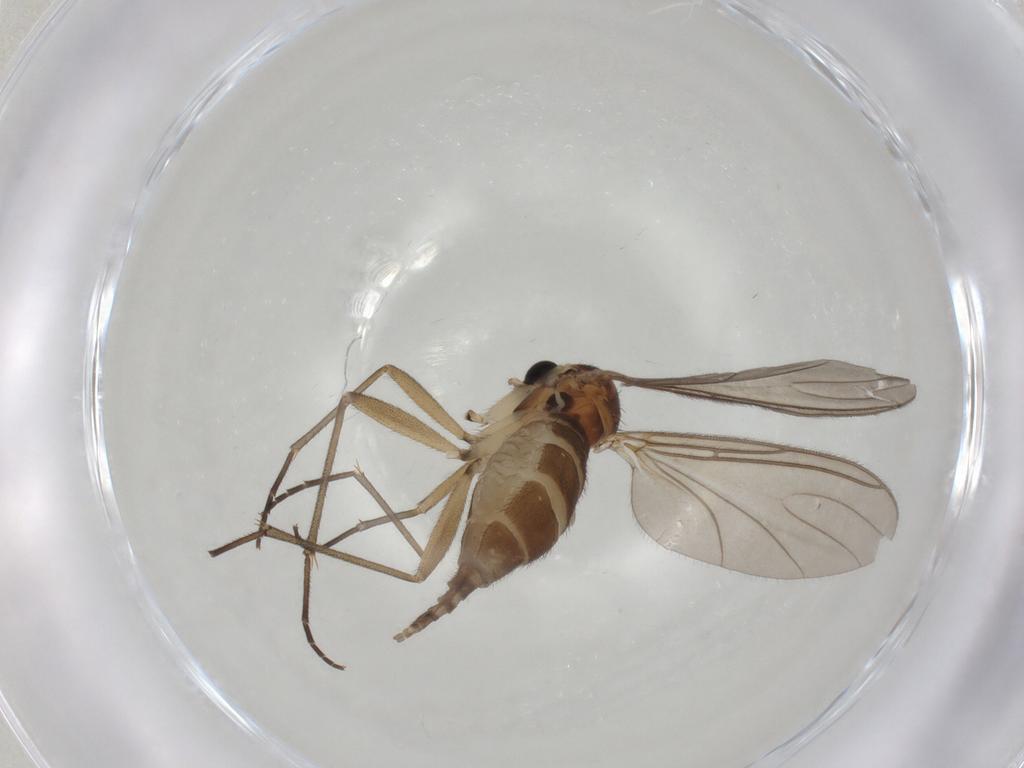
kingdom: Animalia
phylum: Arthropoda
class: Insecta
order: Diptera
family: Sciaridae
